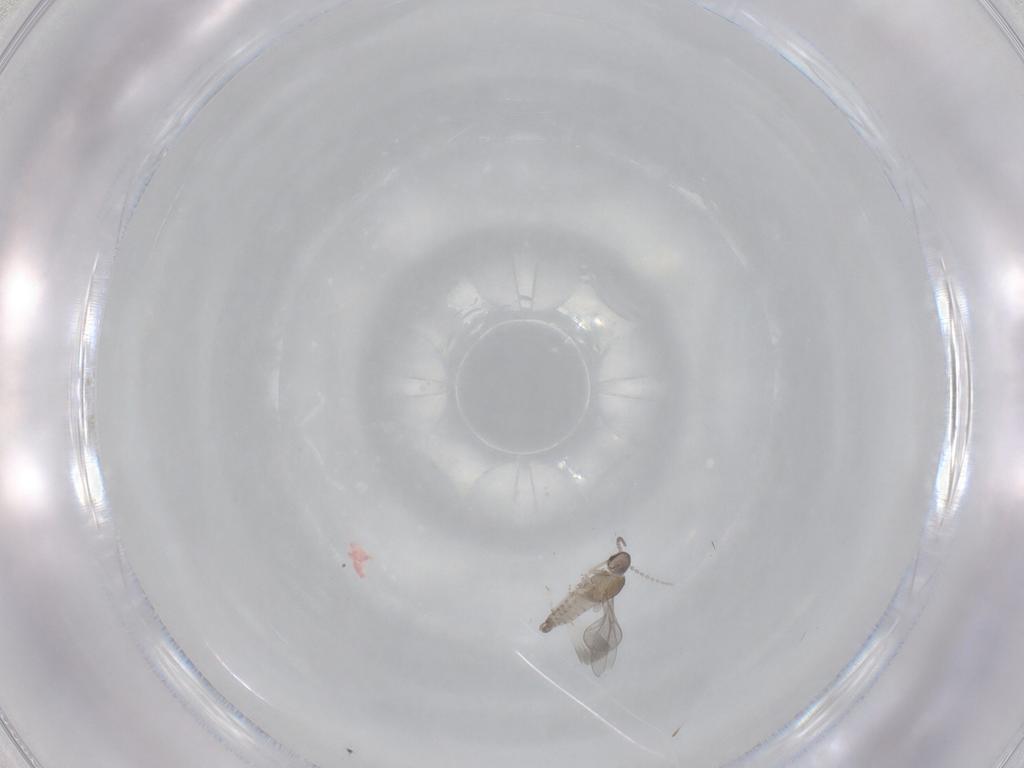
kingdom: Animalia
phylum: Arthropoda
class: Insecta
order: Diptera
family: Cecidomyiidae
